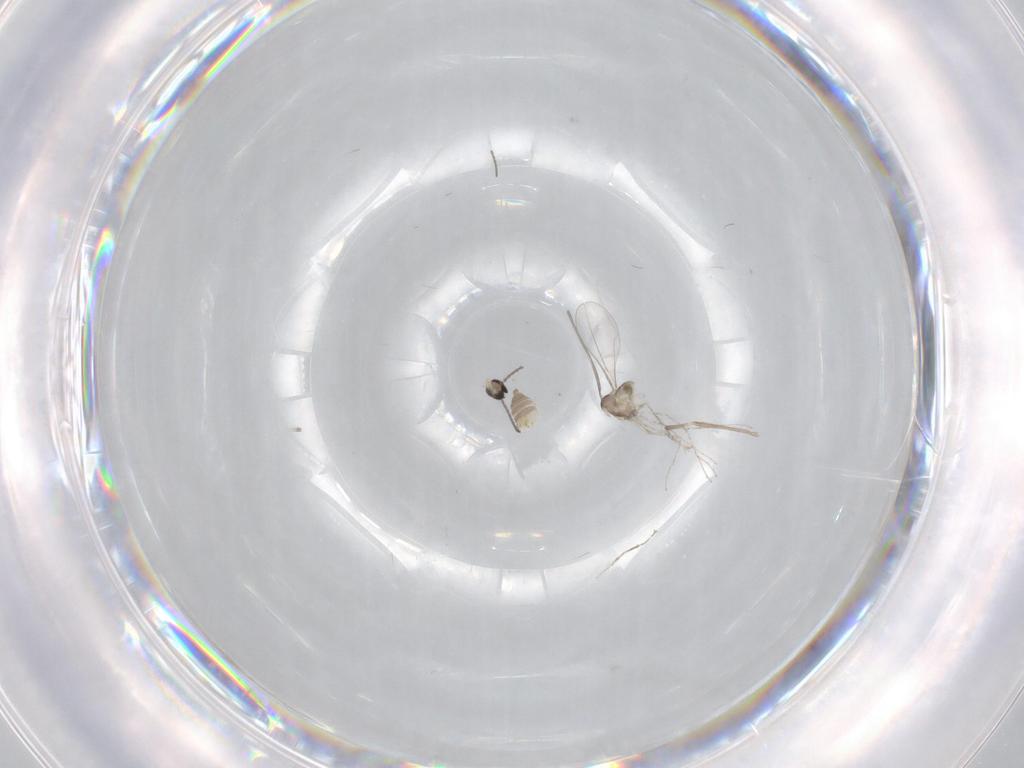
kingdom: Animalia
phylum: Arthropoda
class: Insecta
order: Diptera
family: Cecidomyiidae
